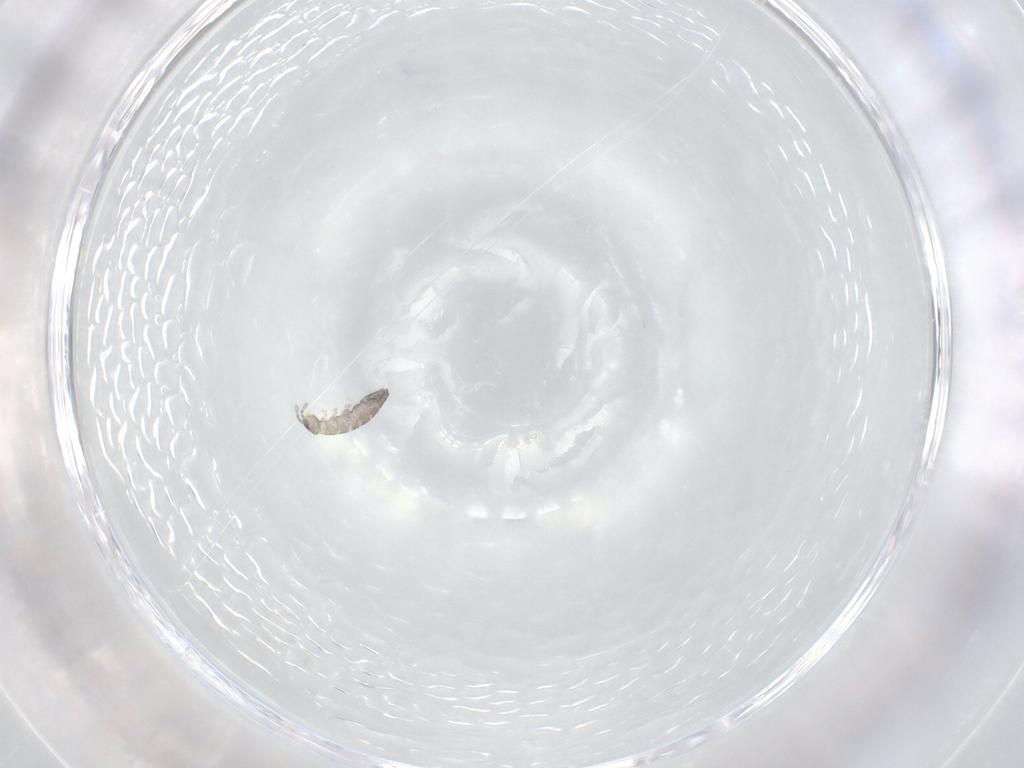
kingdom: Animalia
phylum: Arthropoda
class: Collembola
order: Entomobryomorpha
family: Isotomidae
